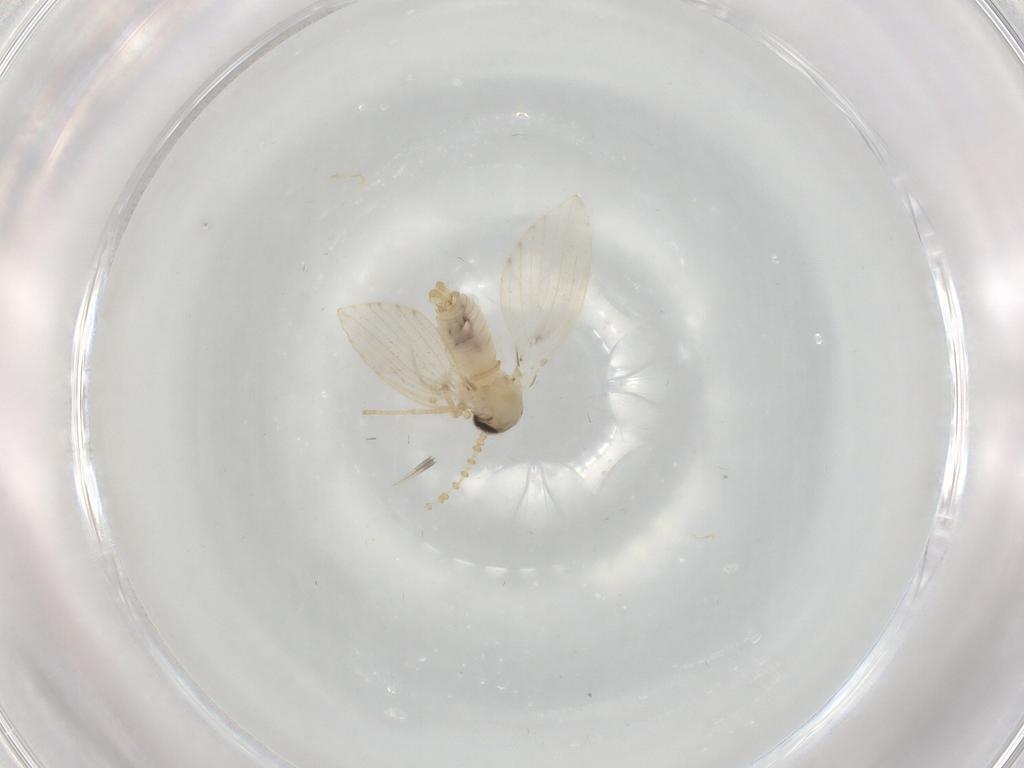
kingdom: Animalia
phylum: Arthropoda
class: Insecta
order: Diptera
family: Psychodidae
